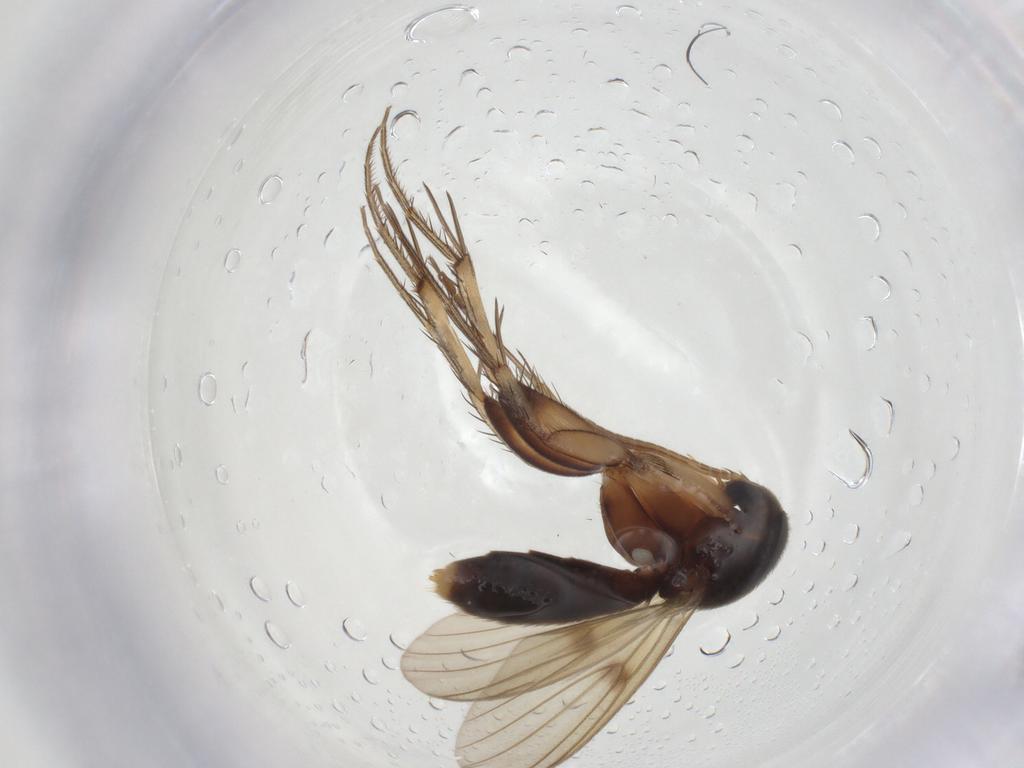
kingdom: Animalia
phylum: Arthropoda
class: Insecta
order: Diptera
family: Mycetophilidae
